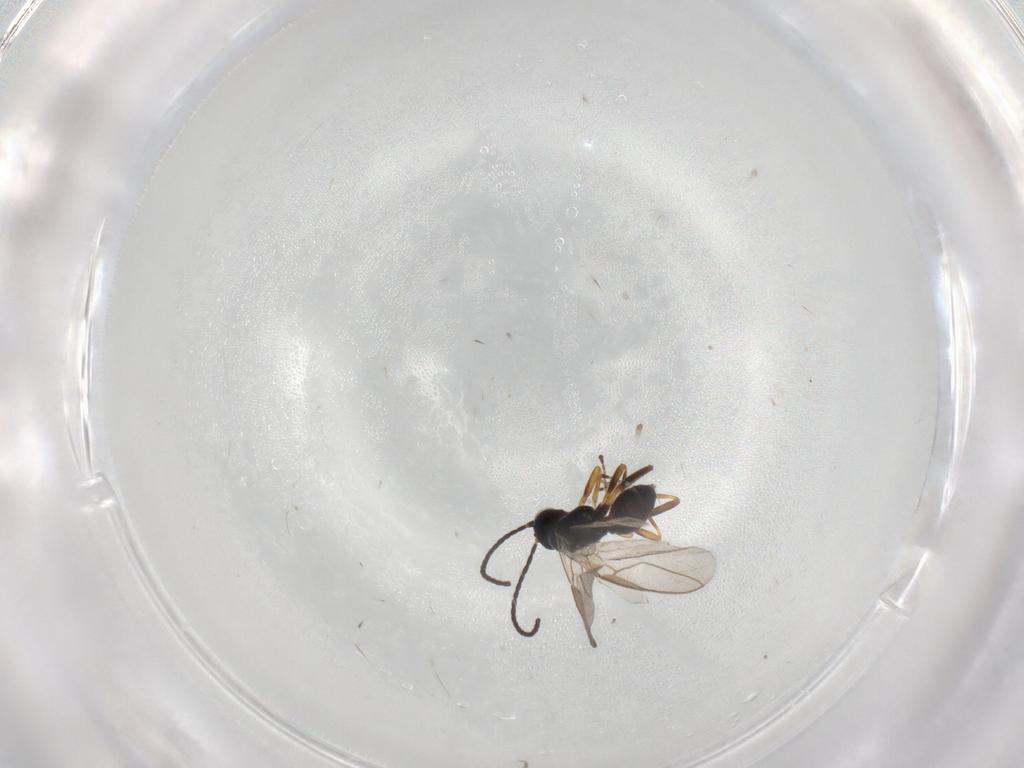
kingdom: Animalia
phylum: Arthropoda
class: Insecta
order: Hymenoptera
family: Braconidae
